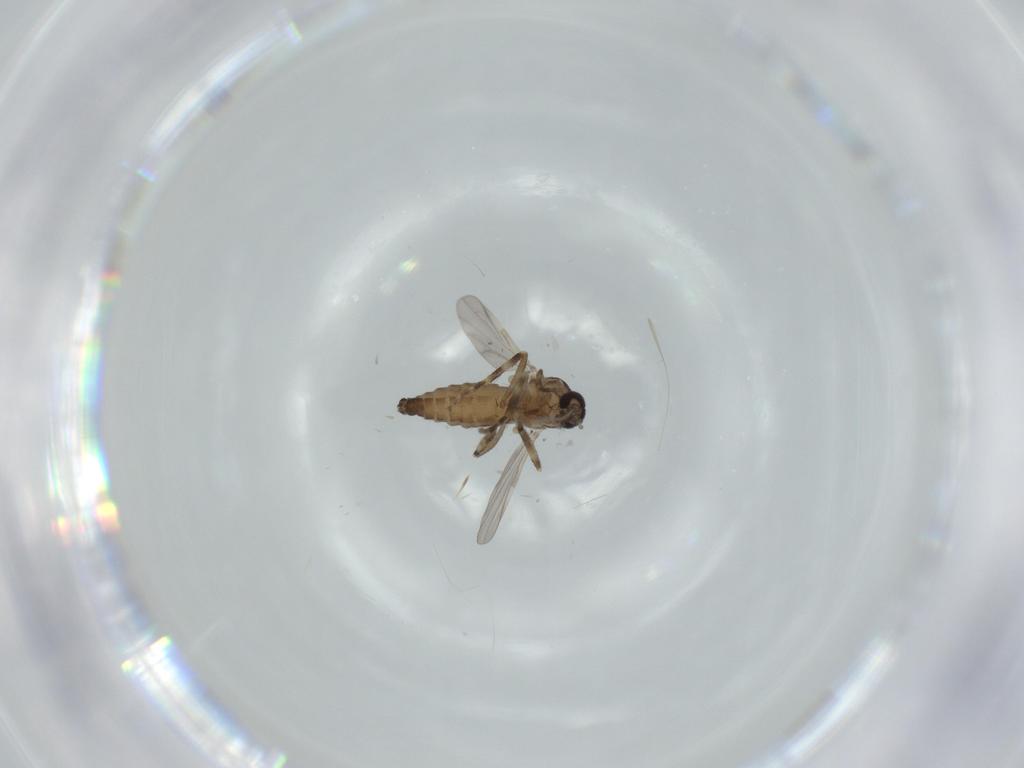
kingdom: Animalia
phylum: Arthropoda
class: Insecta
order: Diptera
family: Ceratopogonidae
